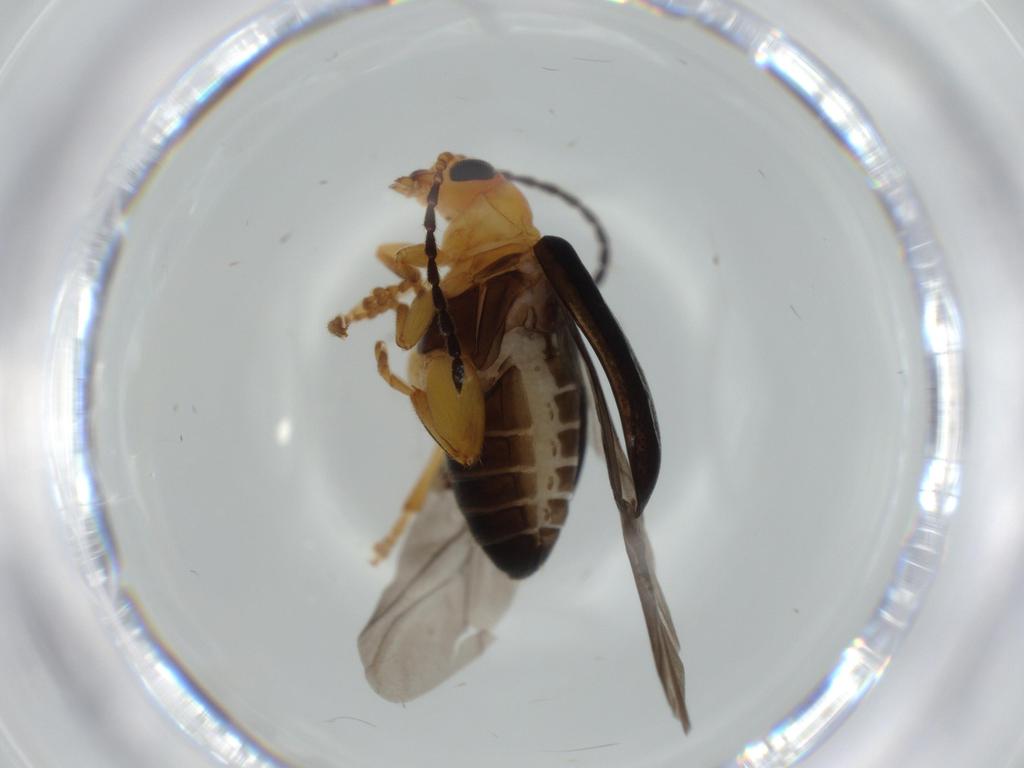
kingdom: Animalia
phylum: Arthropoda
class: Insecta
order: Coleoptera
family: Chrysomelidae
